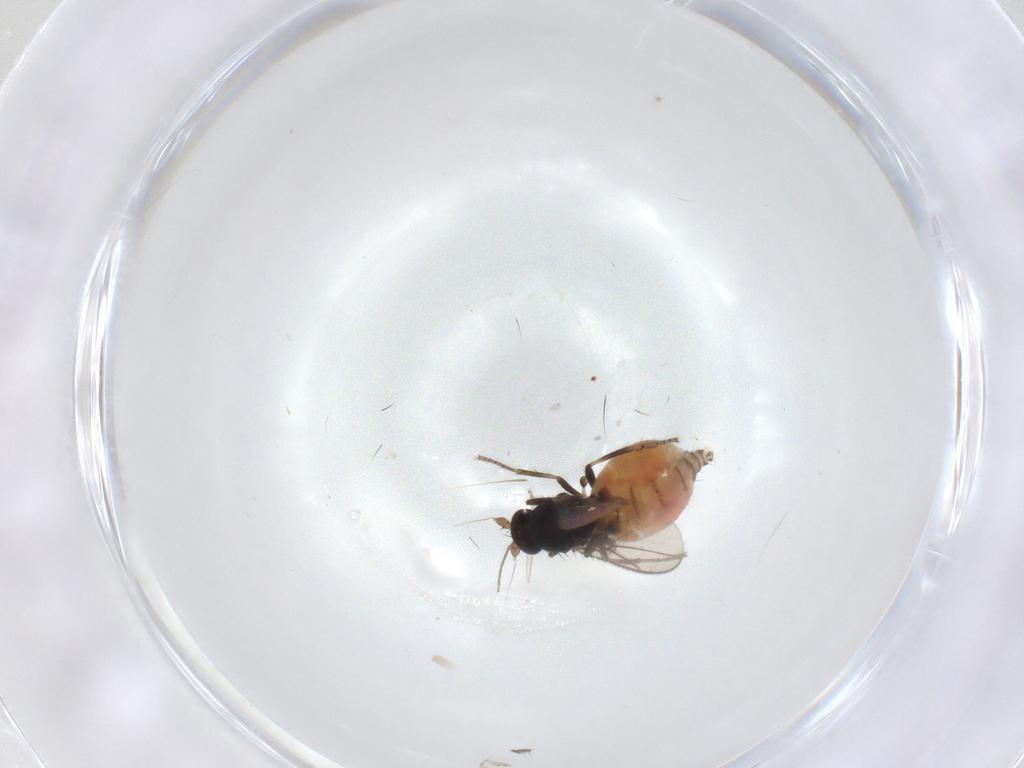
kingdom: Animalia
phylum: Arthropoda
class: Insecta
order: Diptera
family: Sphaeroceridae
